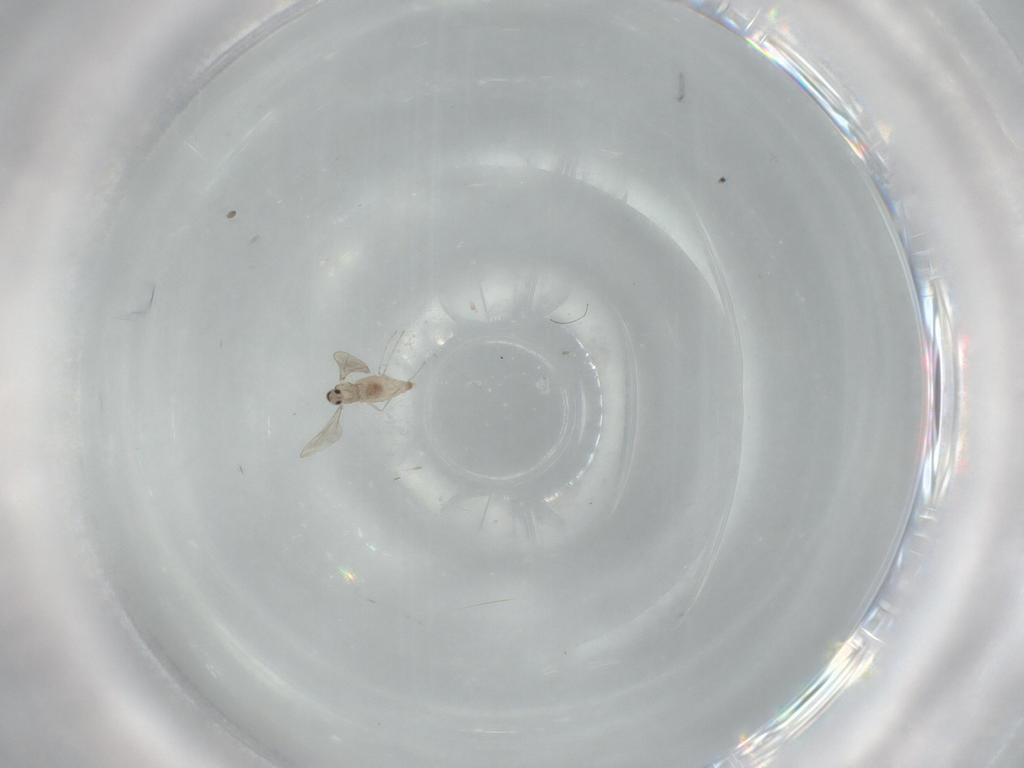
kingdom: Animalia
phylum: Arthropoda
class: Insecta
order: Diptera
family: Cecidomyiidae
